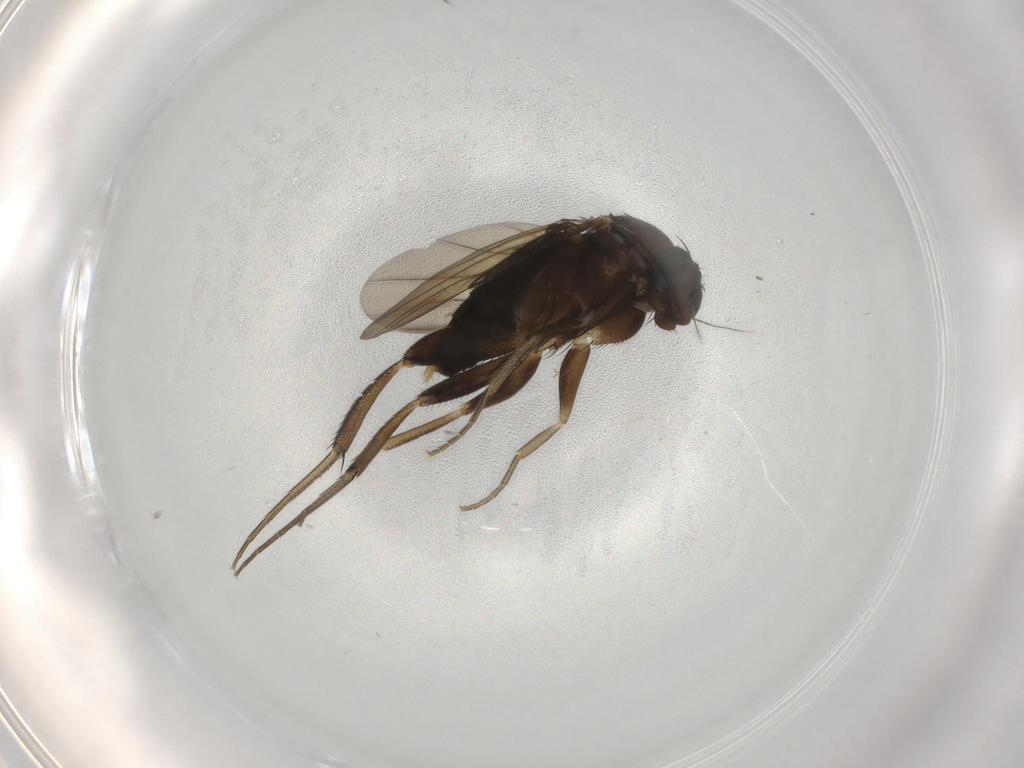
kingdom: Animalia
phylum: Arthropoda
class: Insecta
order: Diptera
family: Phoridae
